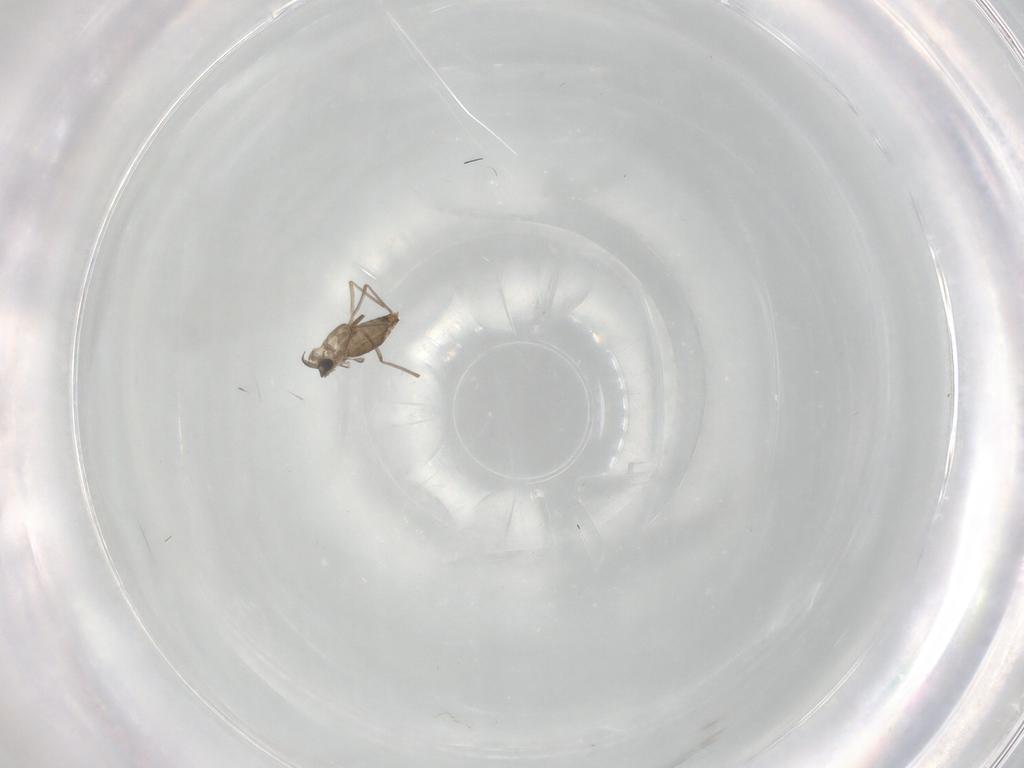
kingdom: Animalia
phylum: Arthropoda
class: Insecta
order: Diptera
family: Chironomidae
